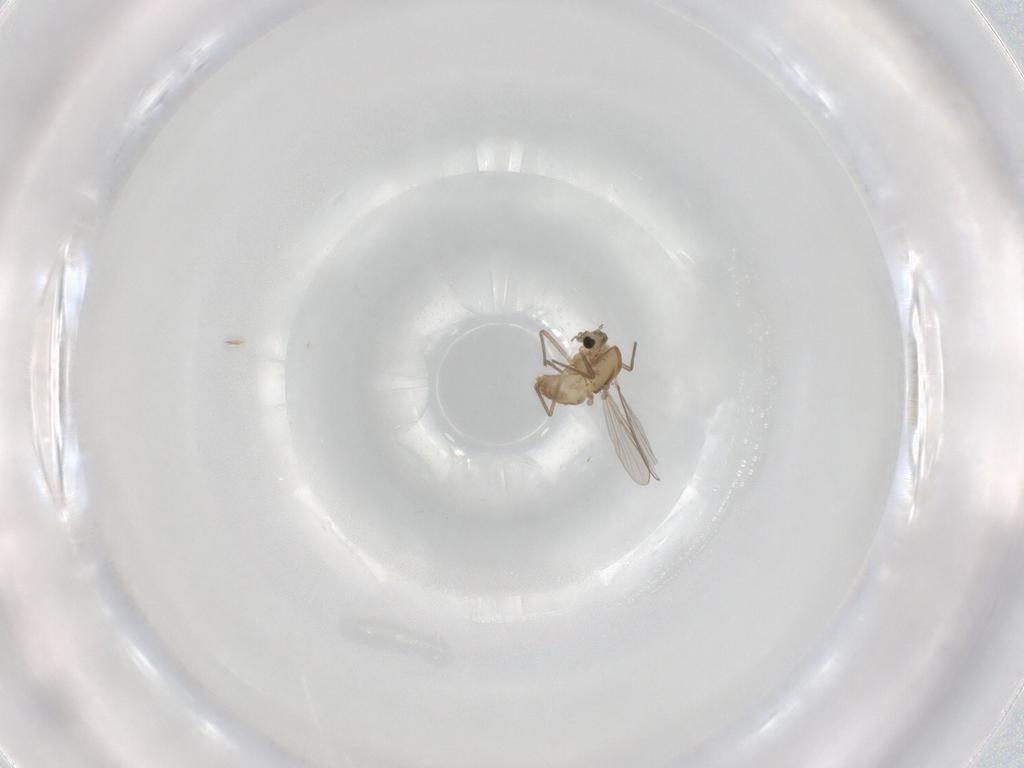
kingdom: Animalia
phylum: Arthropoda
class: Insecta
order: Diptera
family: Chironomidae
